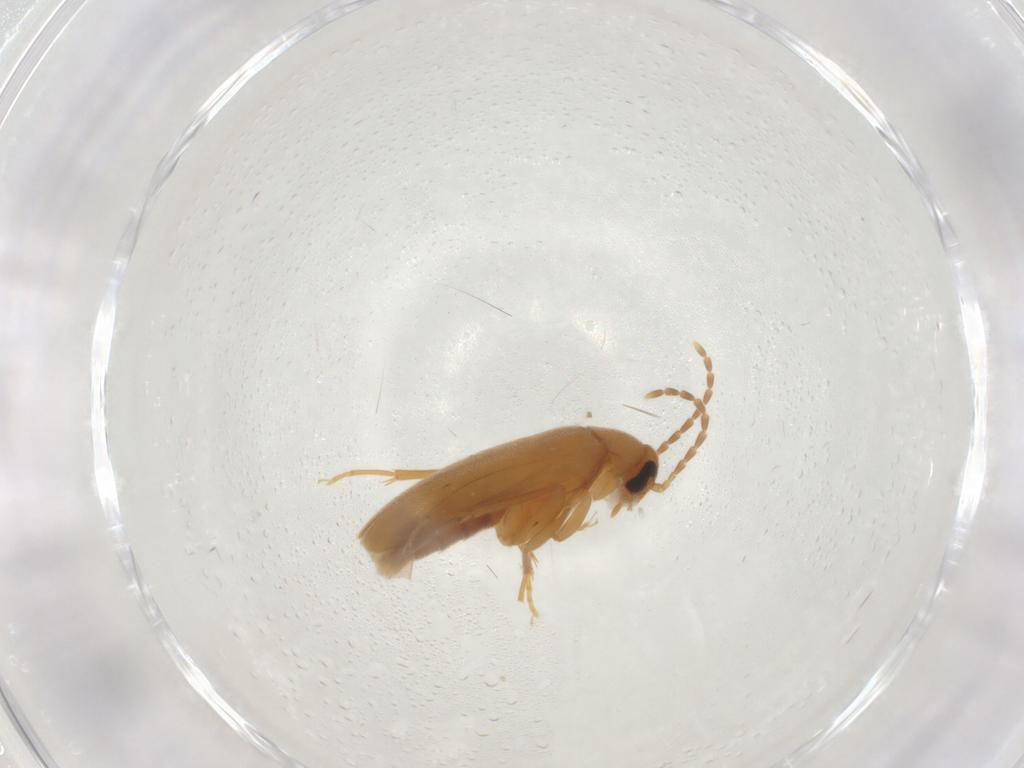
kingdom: Animalia
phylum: Arthropoda
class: Insecta
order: Coleoptera
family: Scraptiidae
